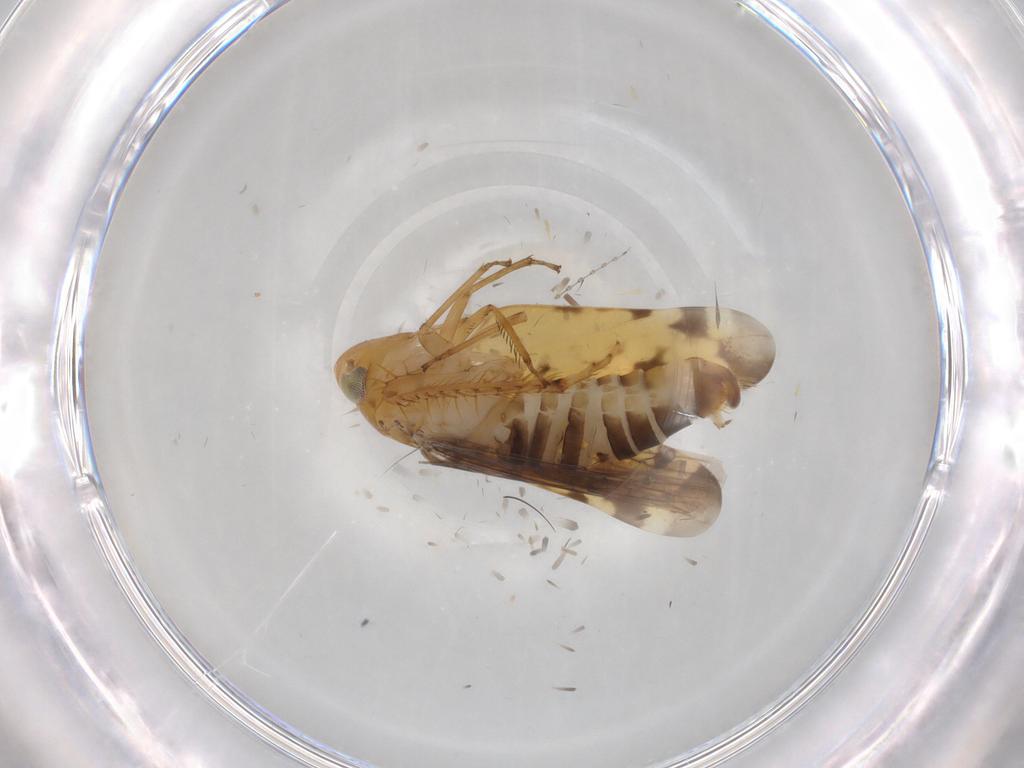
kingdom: Animalia
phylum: Arthropoda
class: Insecta
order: Hemiptera
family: Cicadellidae
